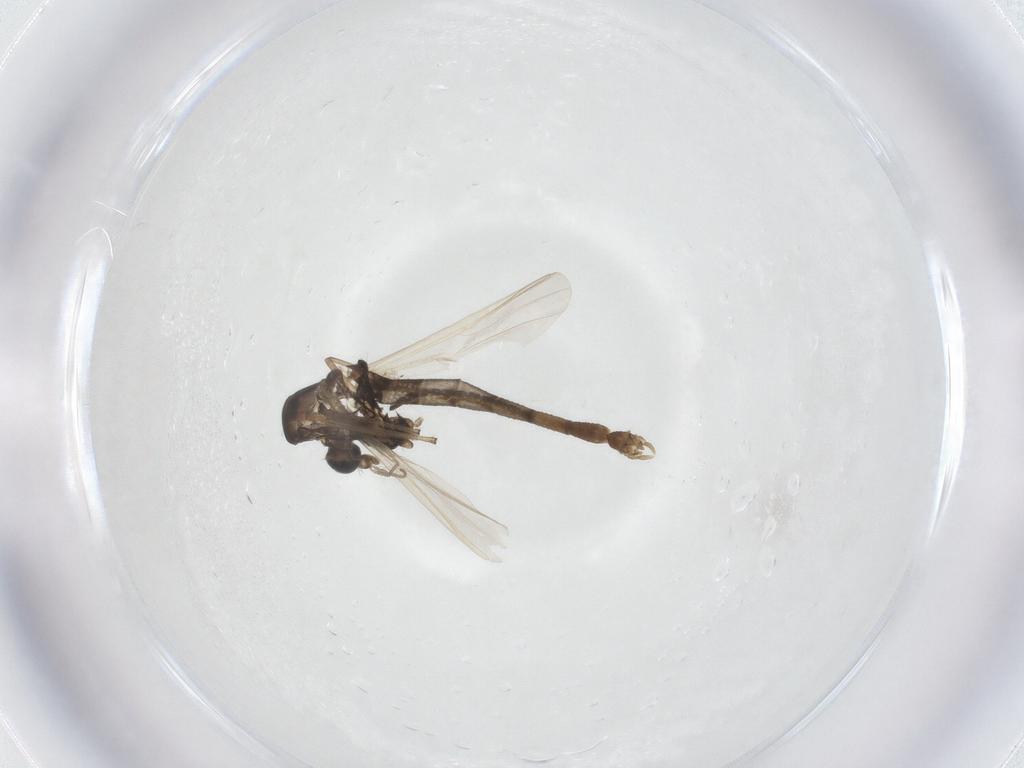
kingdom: Animalia
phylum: Arthropoda
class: Insecta
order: Diptera
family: Chironomidae
